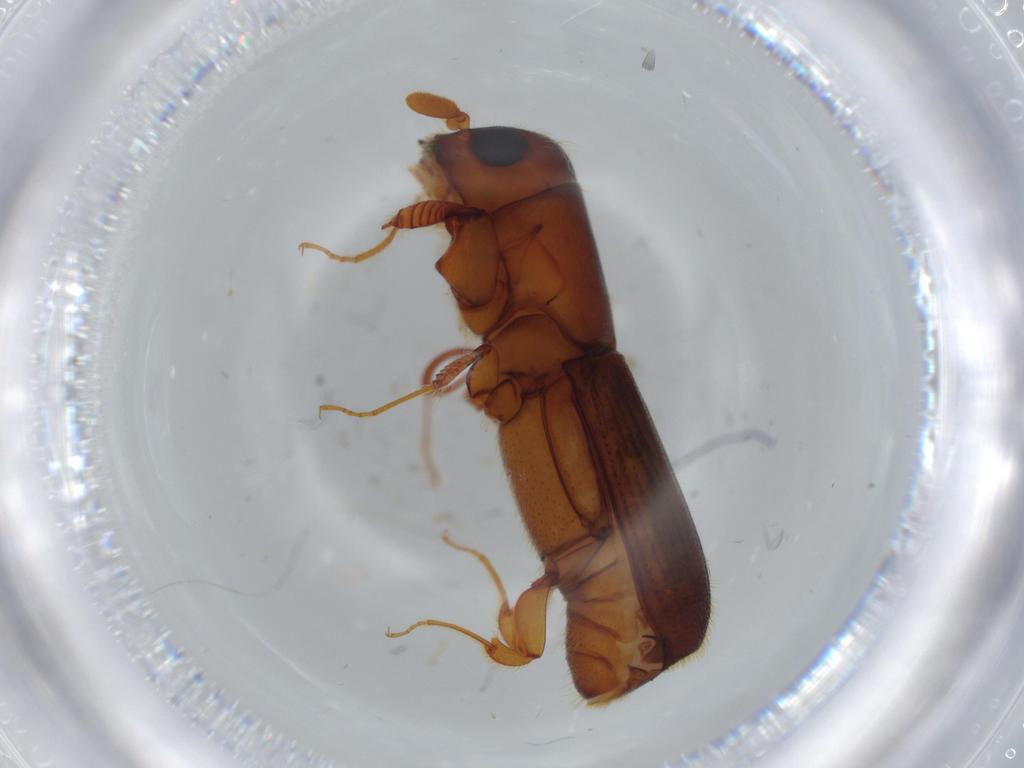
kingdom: Animalia
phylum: Arthropoda
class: Insecta
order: Coleoptera
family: Curculionidae
